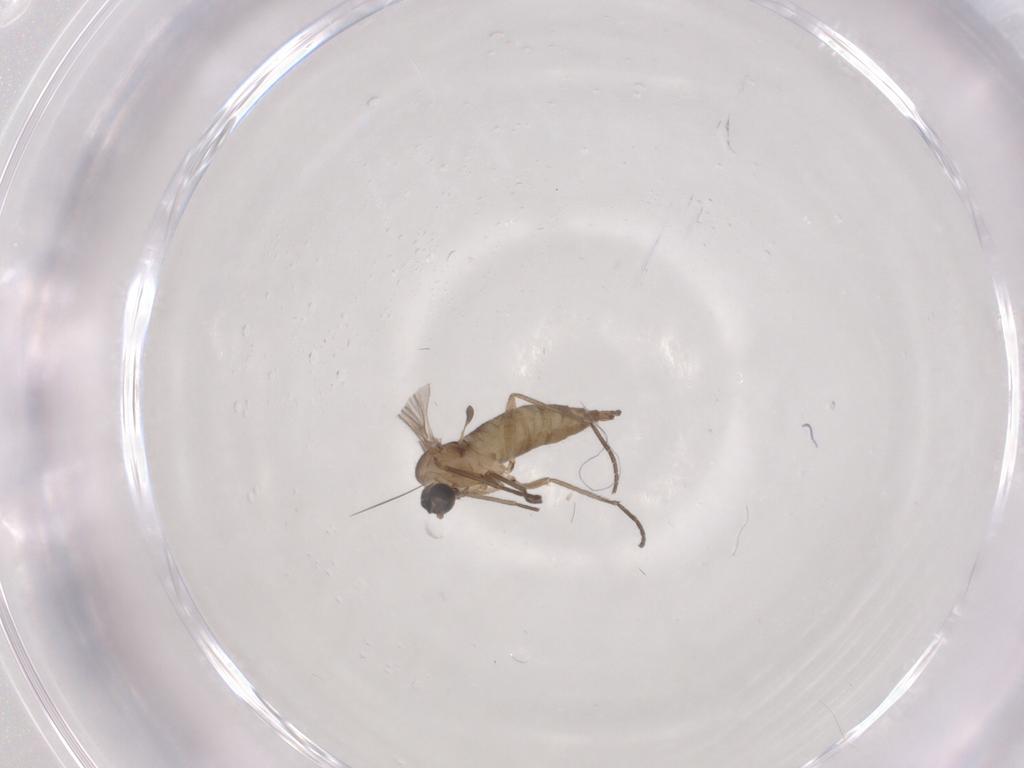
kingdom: Animalia
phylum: Arthropoda
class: Insecta
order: Diptera
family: Sciaridae
